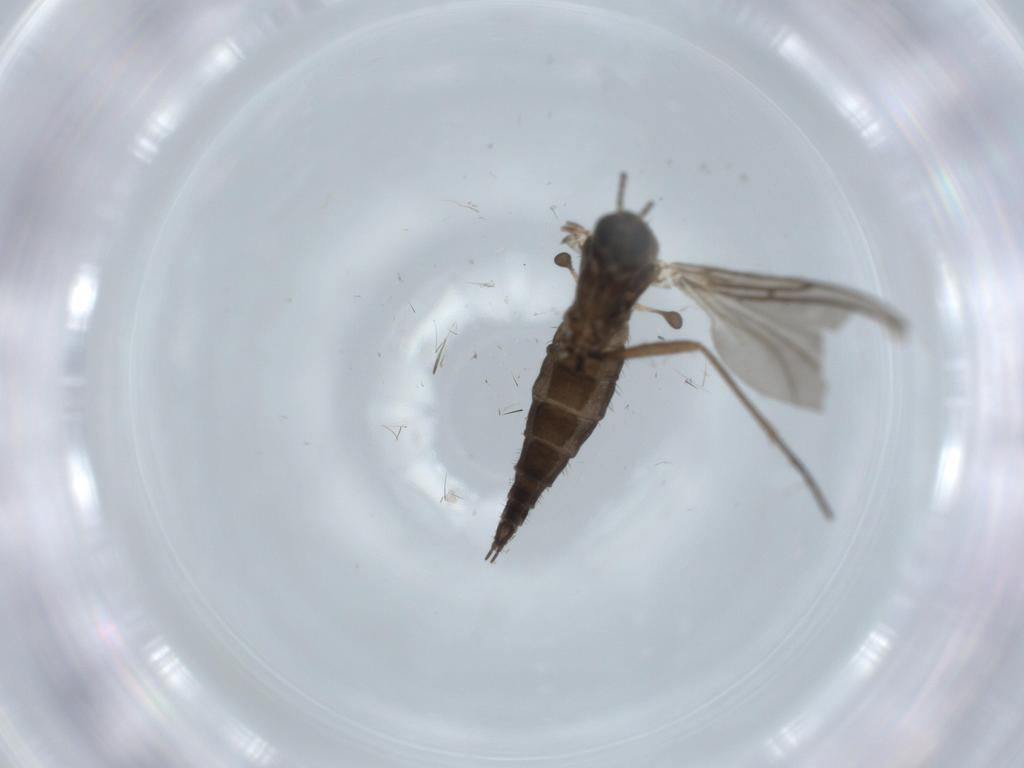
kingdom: Animalia
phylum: Arthropoda
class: Insecta
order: Diptera
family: Sciaridae
